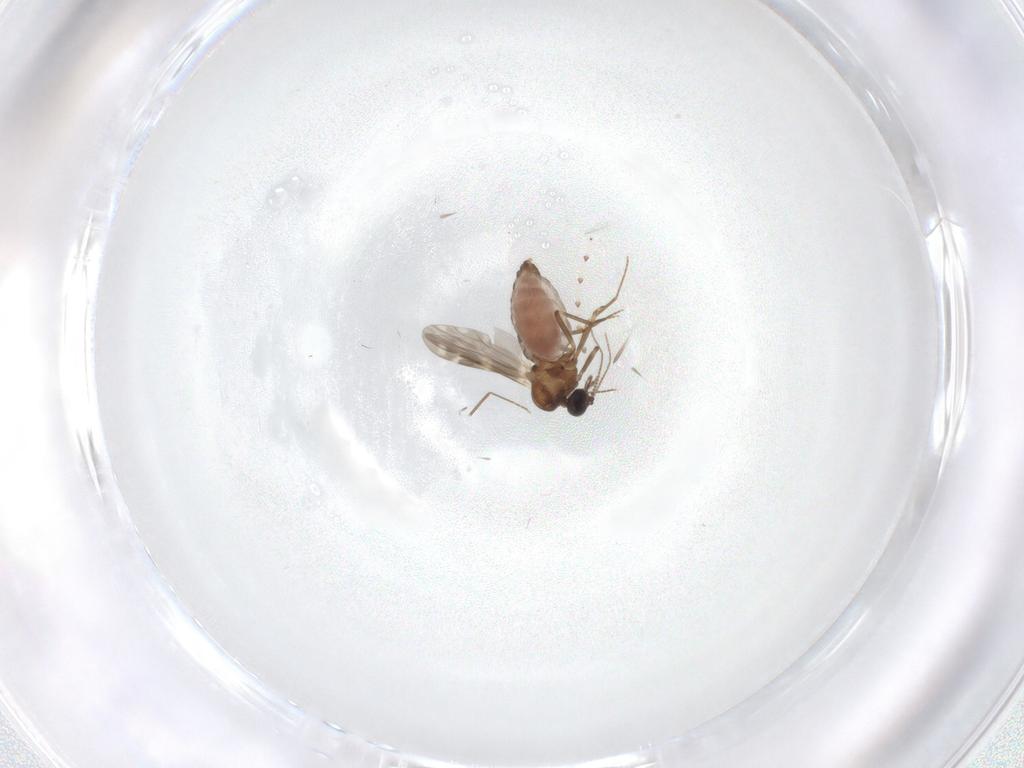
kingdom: Animalia
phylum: Arthropoda
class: Insecta
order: Diptera
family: Cecidomyiidae
